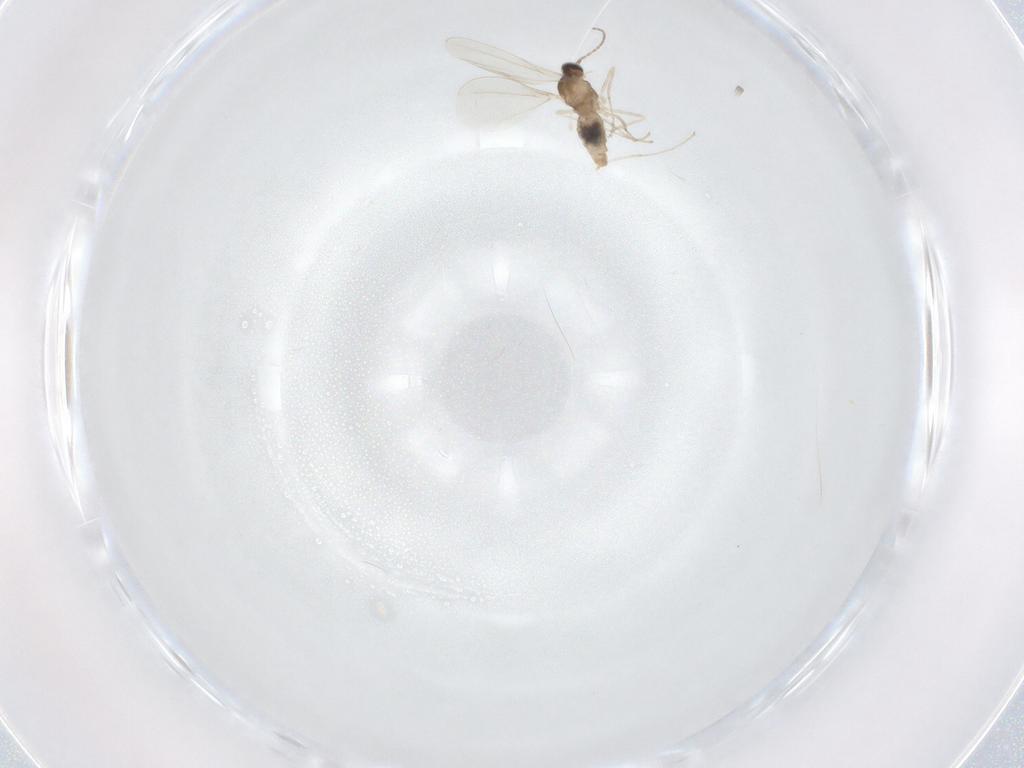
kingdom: Animalia
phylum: Arthropoda
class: Insecta
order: Diptera
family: Cecidomyiidae
